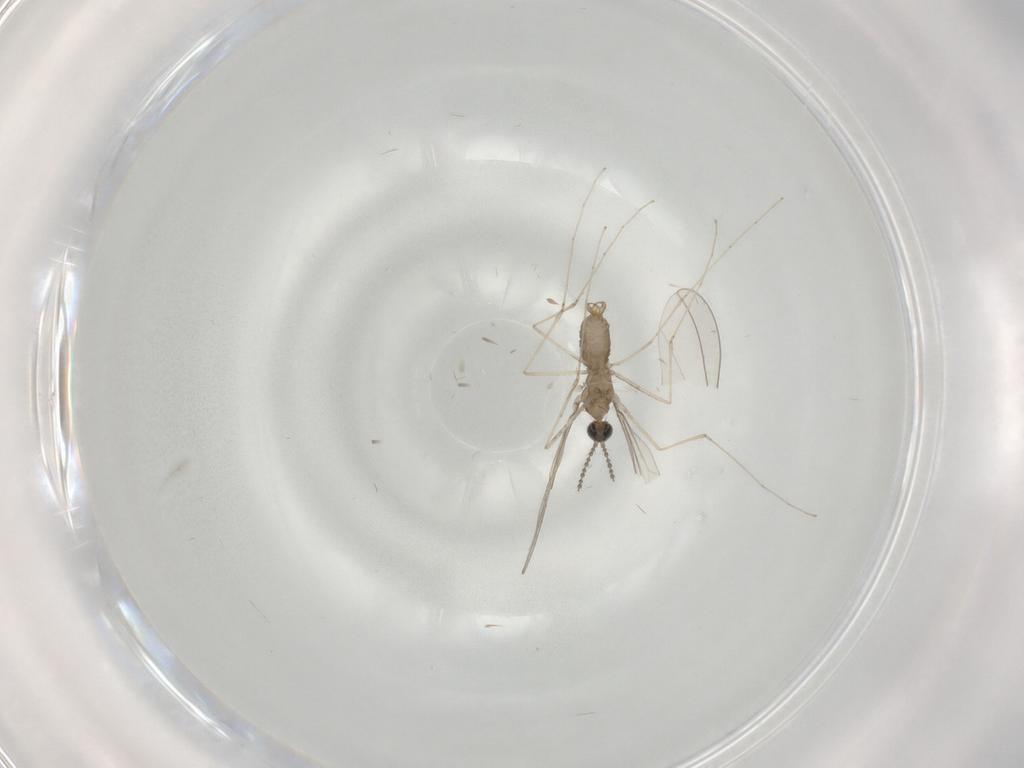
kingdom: Animalia
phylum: Arthropoda
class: Insecta
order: Diptera
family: Cecidomyiidae
